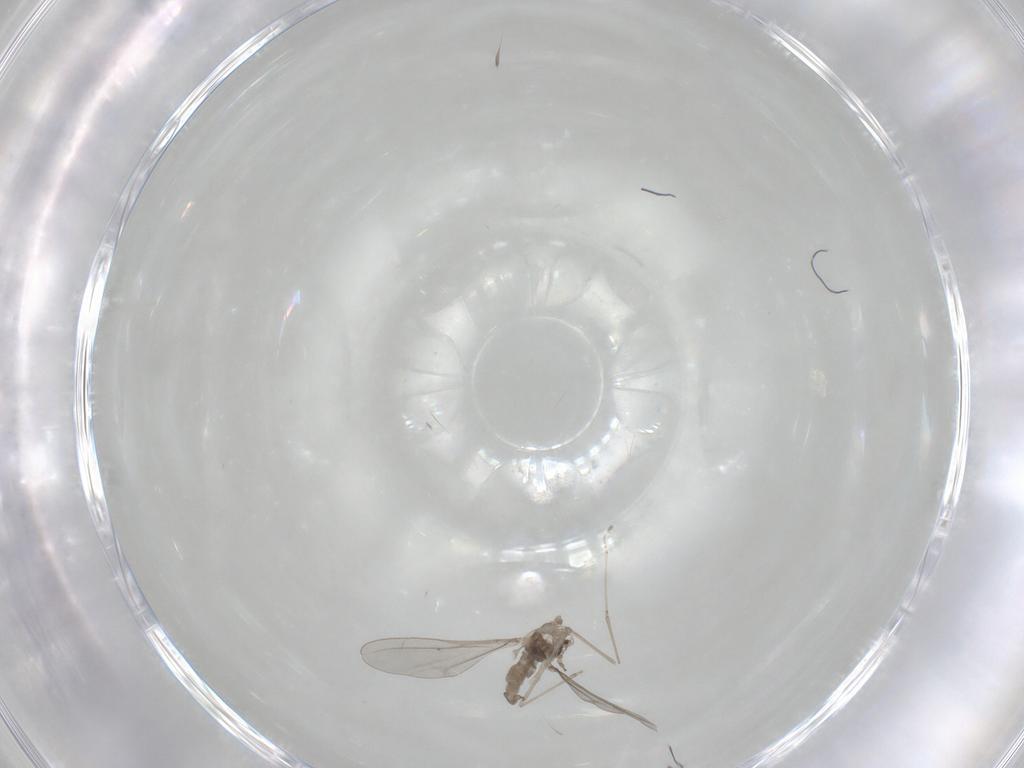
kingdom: Animalia
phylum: Arthropoda
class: Insecta
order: Diptera
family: Cecidomyiidae
